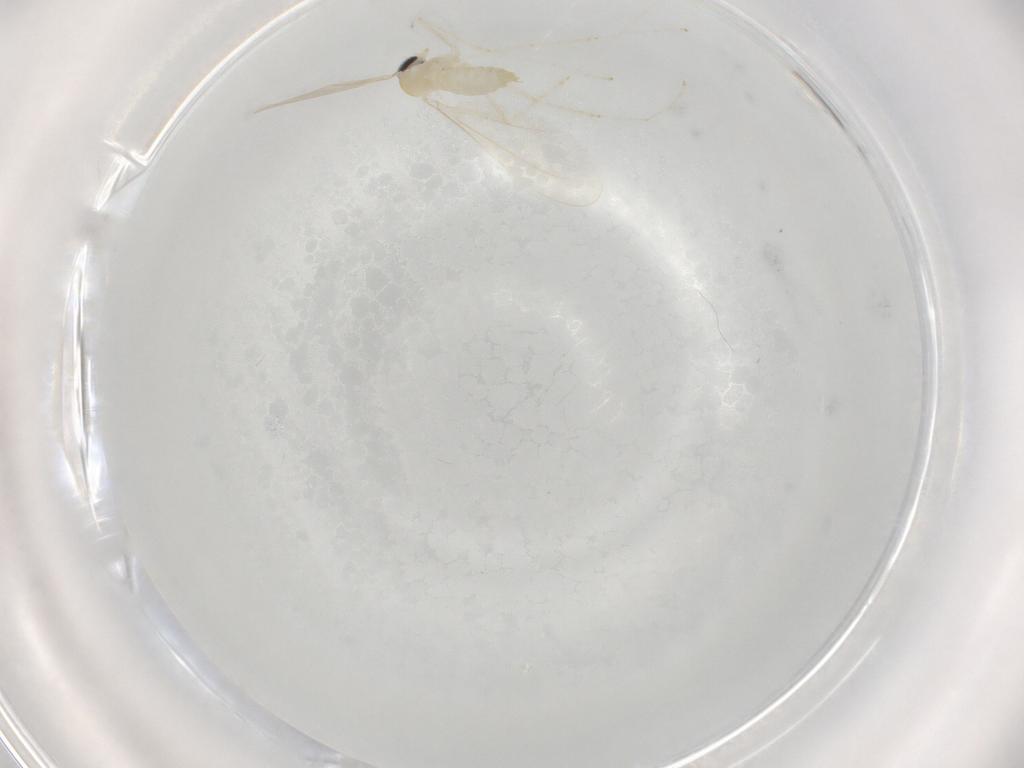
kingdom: Animalia
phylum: Arthropoda
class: Insecta
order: Diptera
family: Cecidomyiidae
